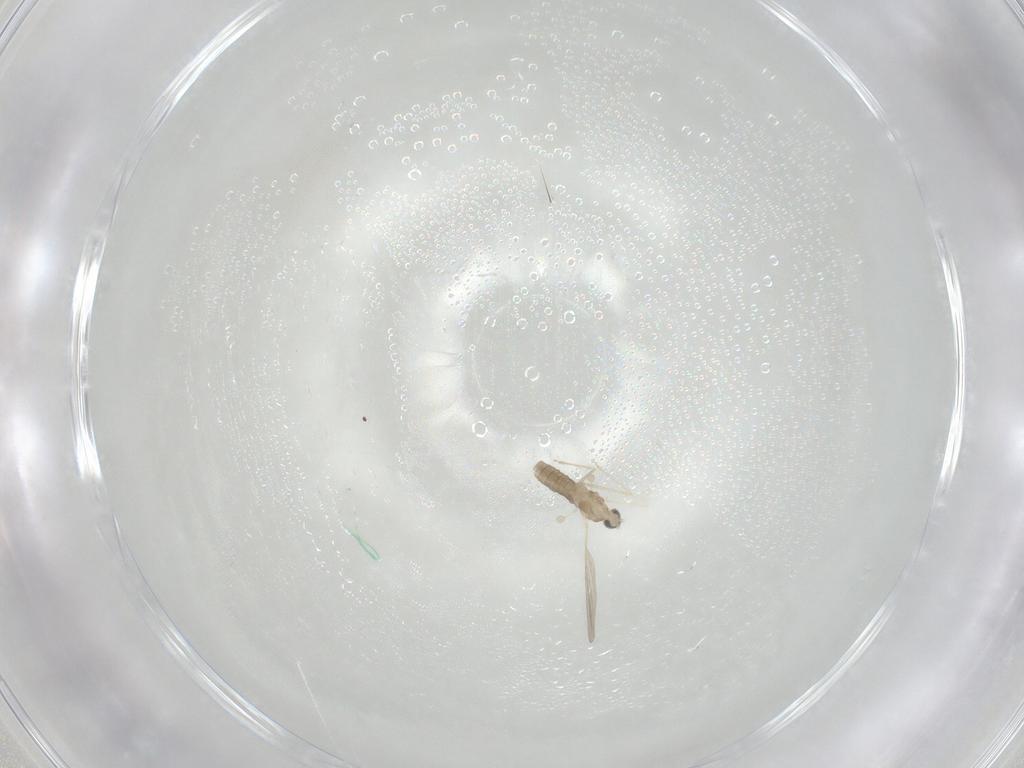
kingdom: Animalia
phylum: Arthropoda
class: Insecta
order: Diptera
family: Cecidomyiidae
